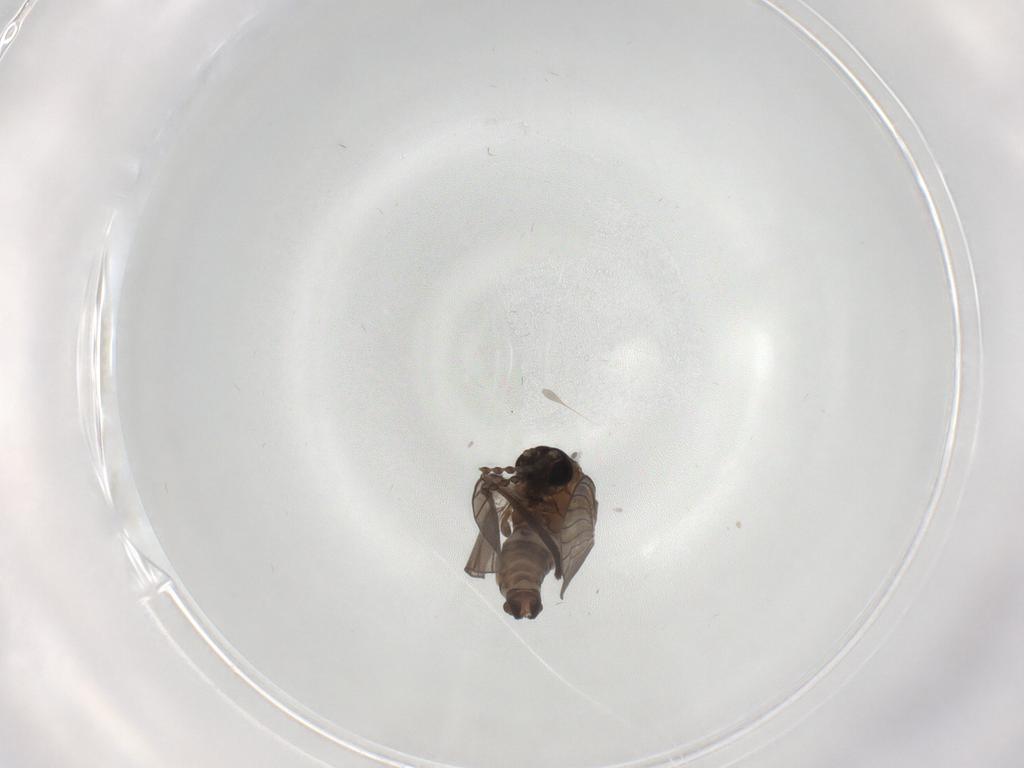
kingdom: Animalia
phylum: Arthropoda
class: Insecta
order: Diptera
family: Psychodidae
